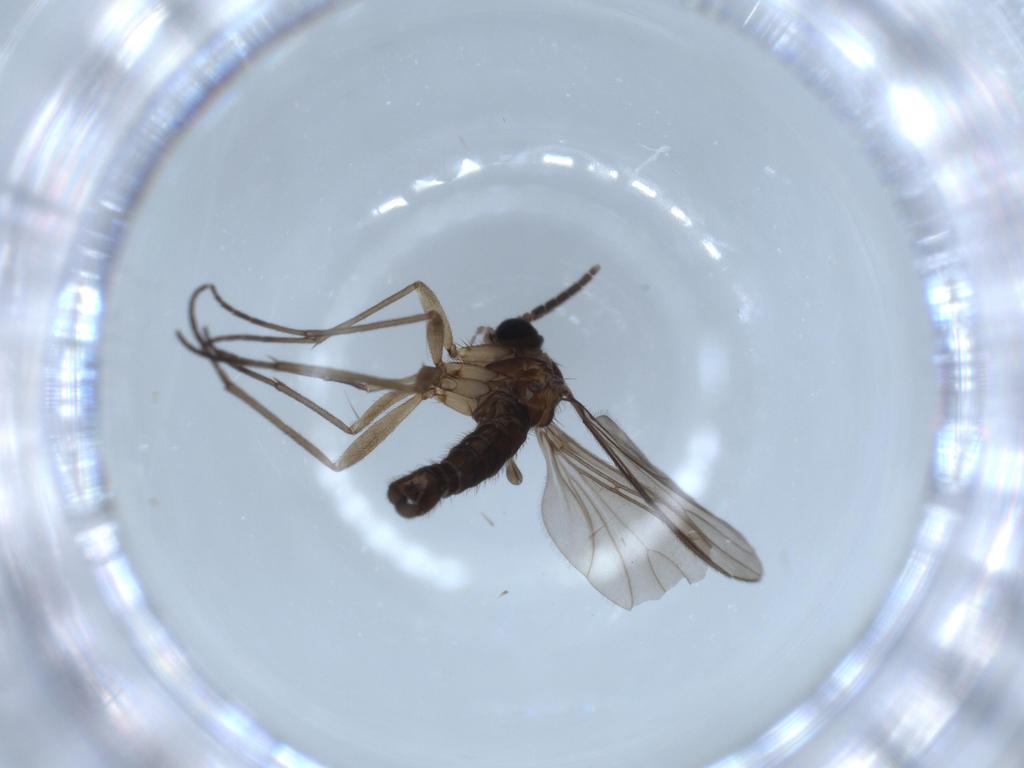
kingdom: Animalia
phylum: Arthropoda
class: Insecta
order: Diptera
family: Sciaridae
